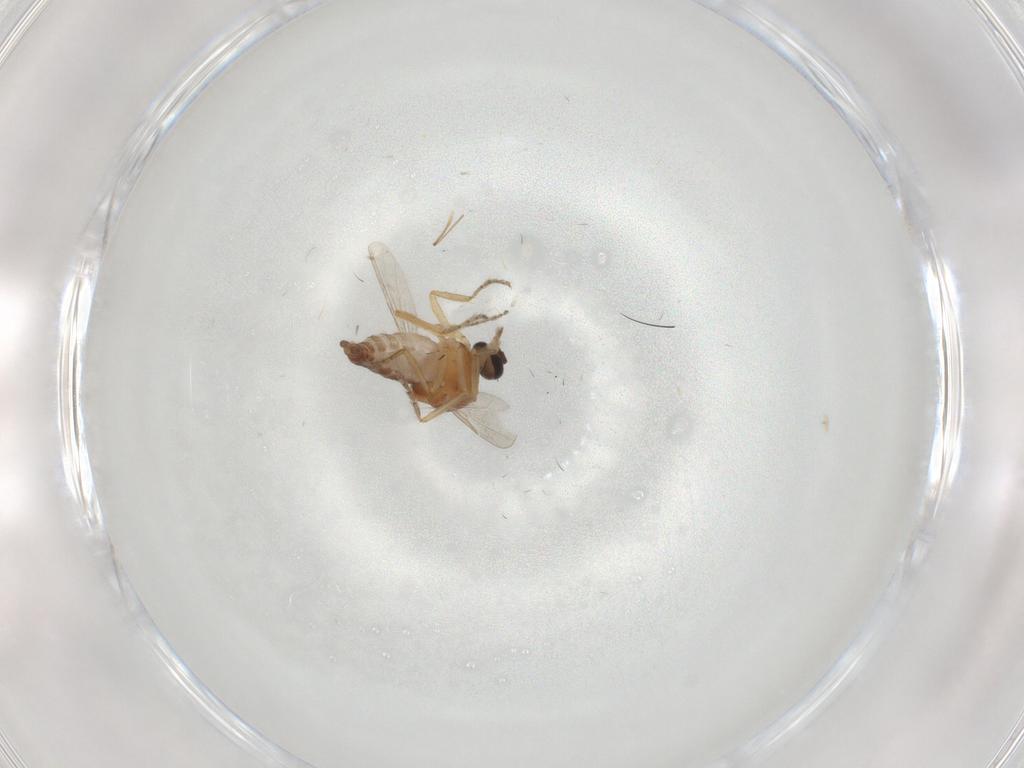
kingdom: Animalia
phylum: Arthropoda
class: Insecta
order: Diptera
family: Ceratopogonidae
